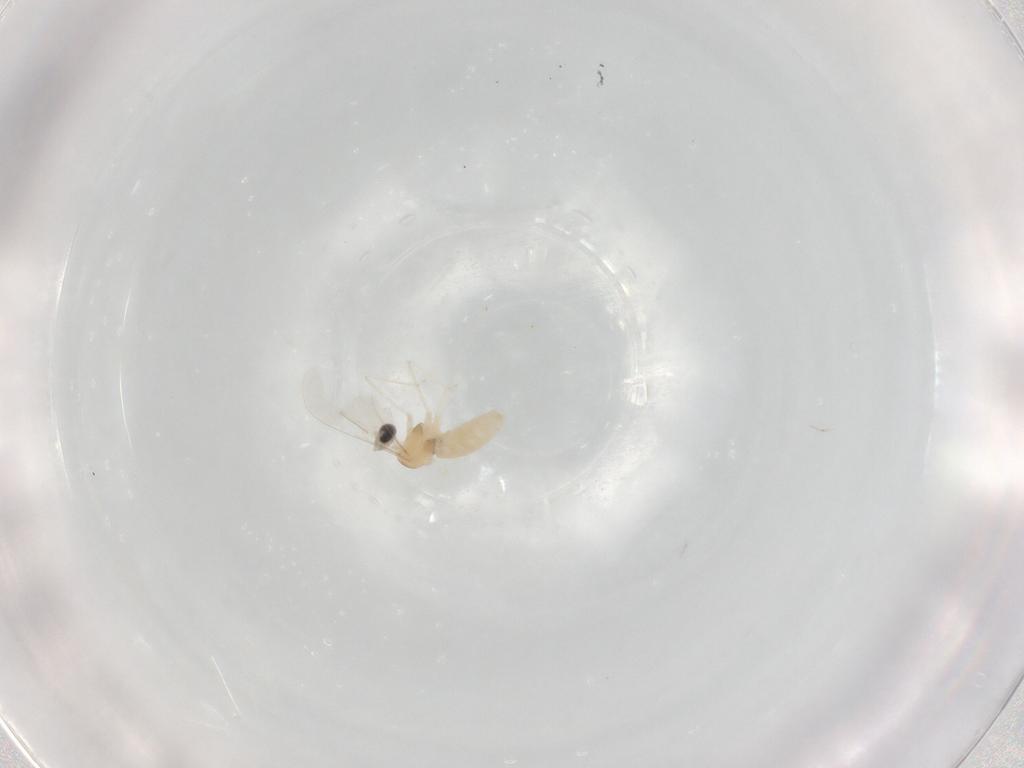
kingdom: Animalia
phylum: Arthropoda
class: Insecta
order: Diptera
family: Cecidomyiidae
